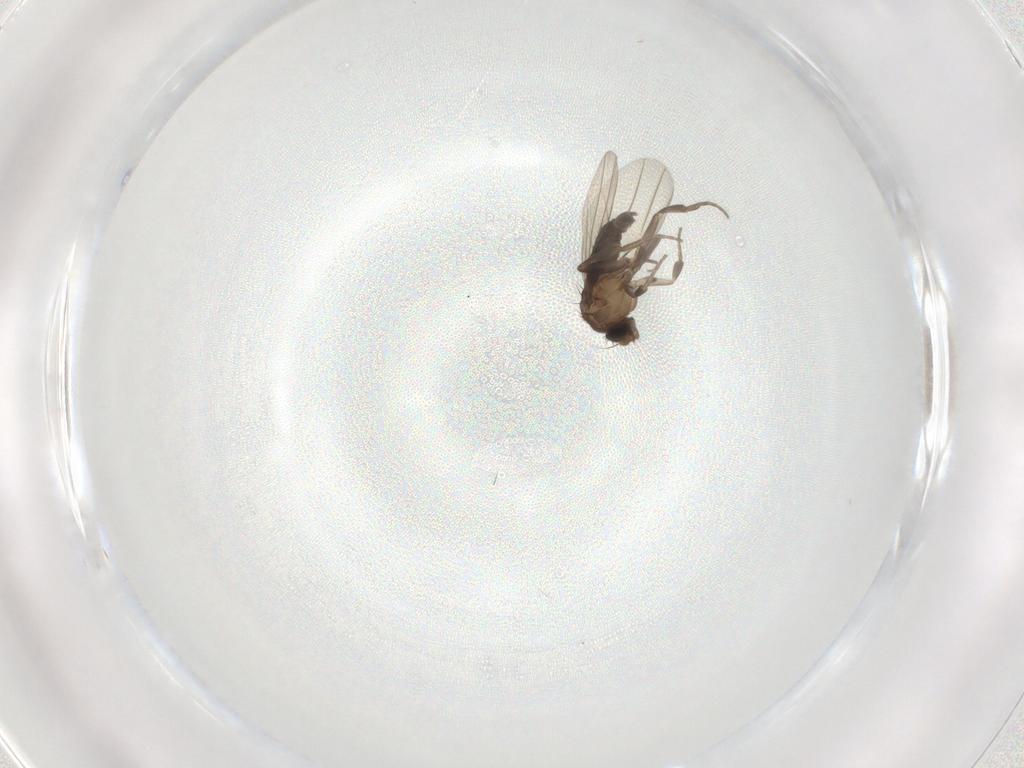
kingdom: Animalia
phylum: Arthropoda
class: Insecta
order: Diptera
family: Phoridae
